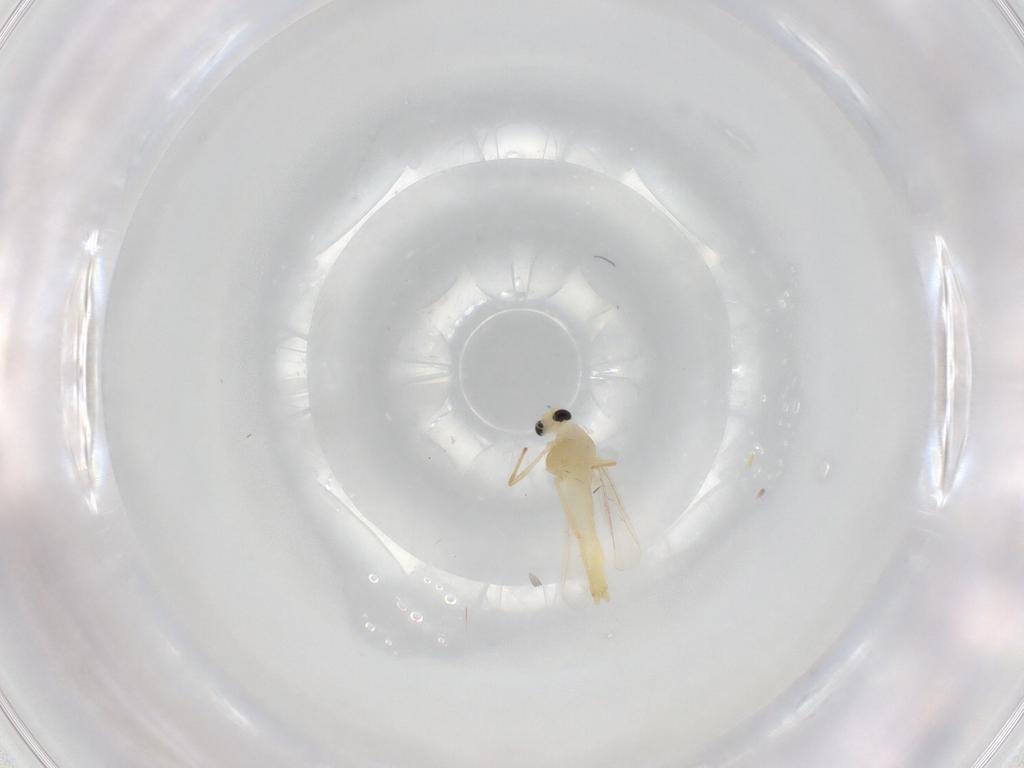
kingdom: Animalia
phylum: Arthropoda
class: Insecta
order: Diptera
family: Chironomidae
